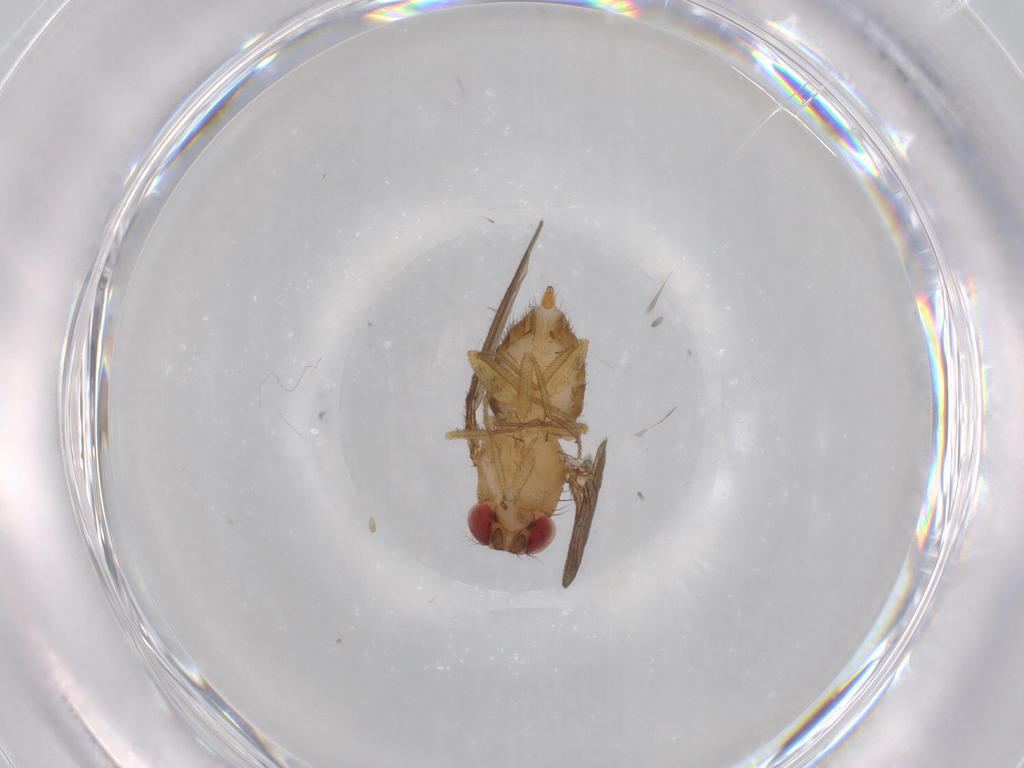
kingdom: Animalia
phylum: Arthropoda
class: Insecta
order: Diptera
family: Drosophilidae
